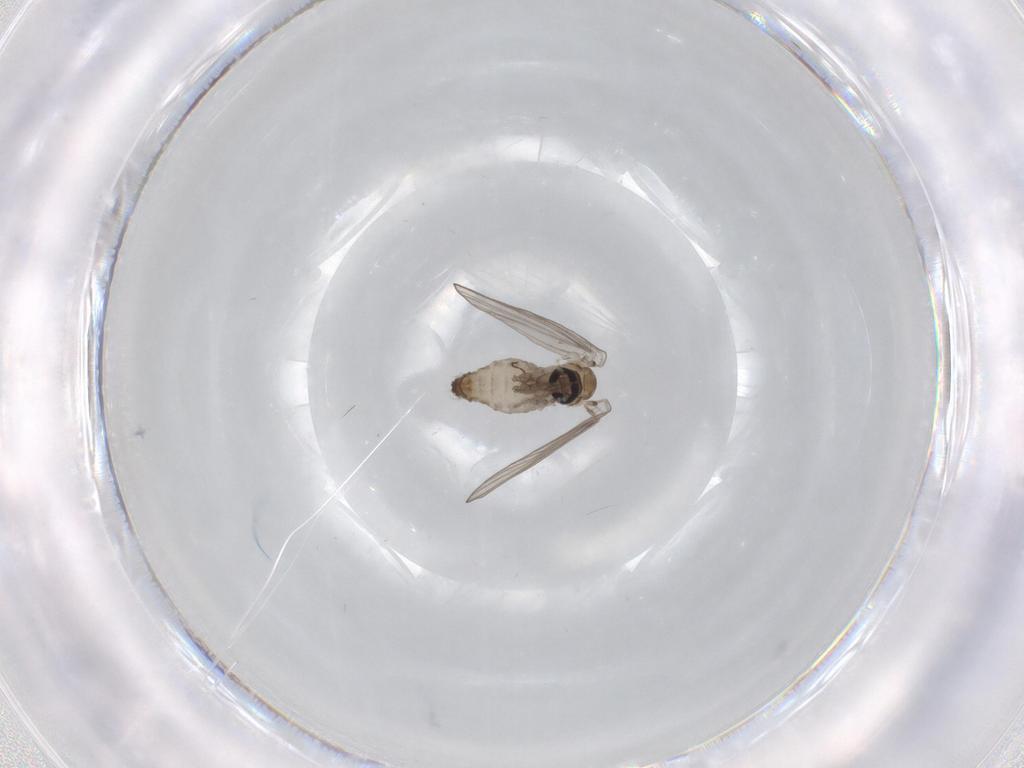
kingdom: Animalia
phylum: Arthropoda
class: Insecta
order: Diptera
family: Psychodidae
